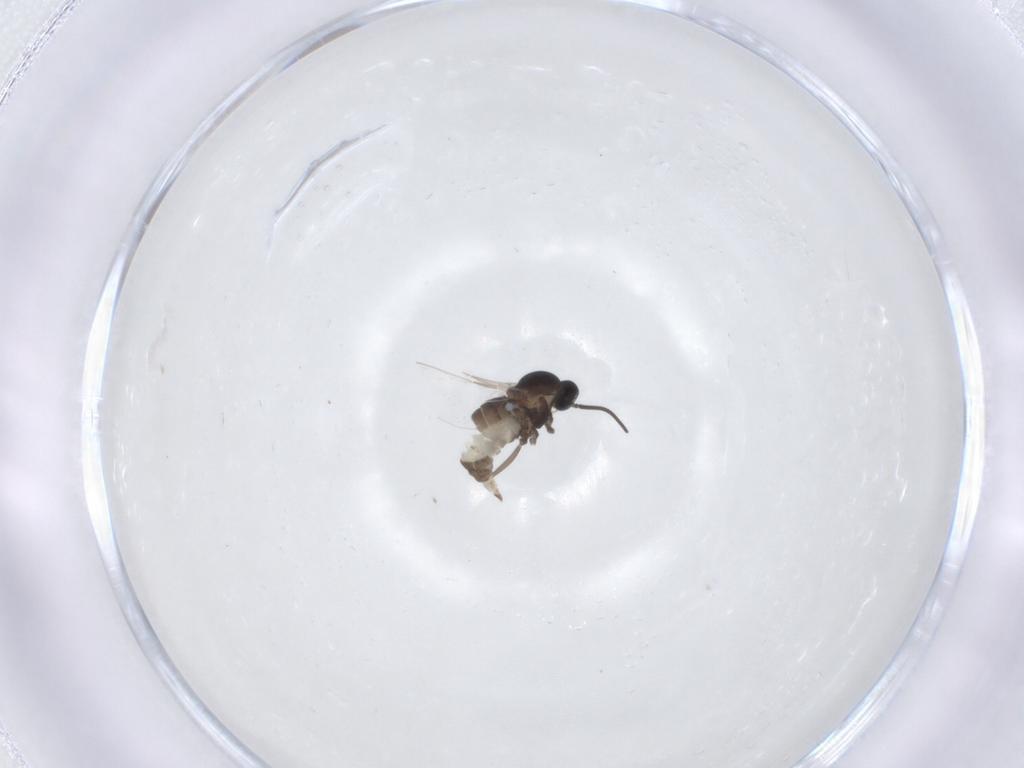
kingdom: Animalia
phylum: Arthropoda
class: Insecta
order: Diptera
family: Cecidomyiidae
